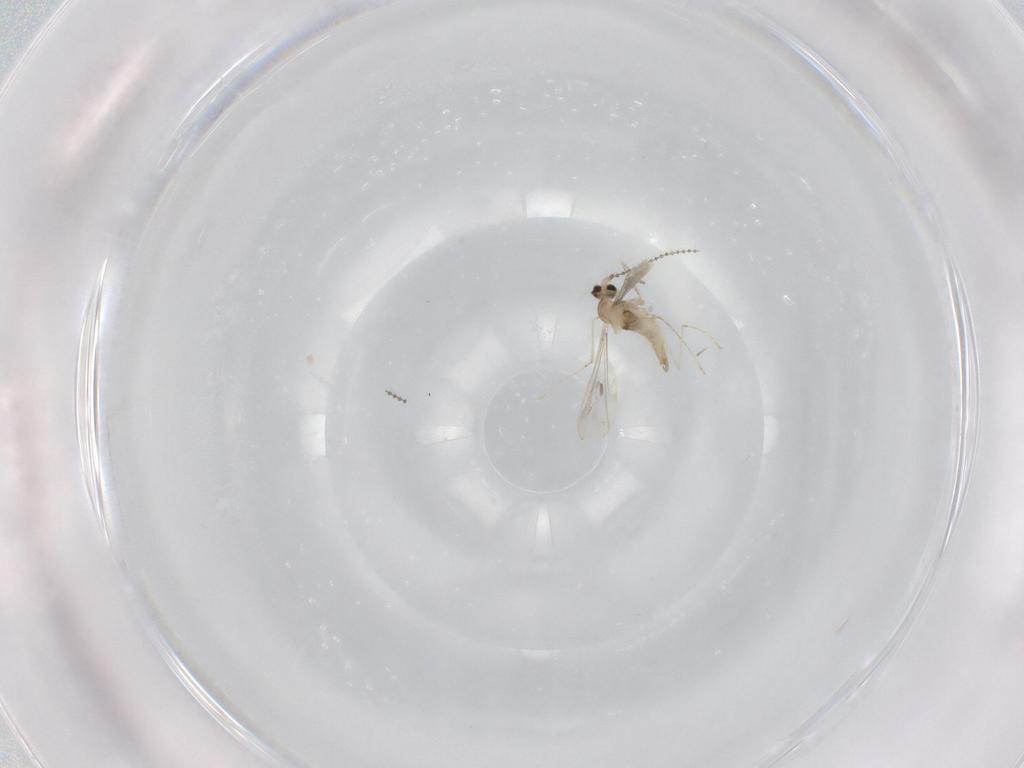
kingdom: Animalia
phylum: Arthropoda
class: Insecta
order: Diptera
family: Cecidomyiidae
